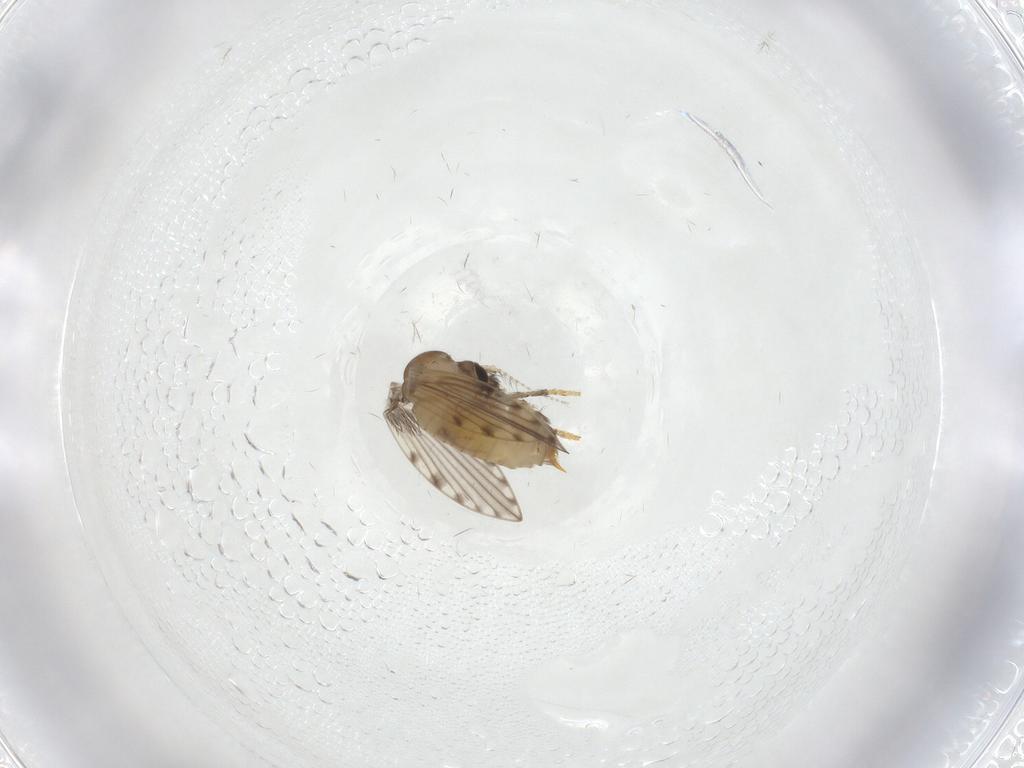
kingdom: Animalia
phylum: Arthropoda
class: Insecta
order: Diptera
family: Psychodidae
